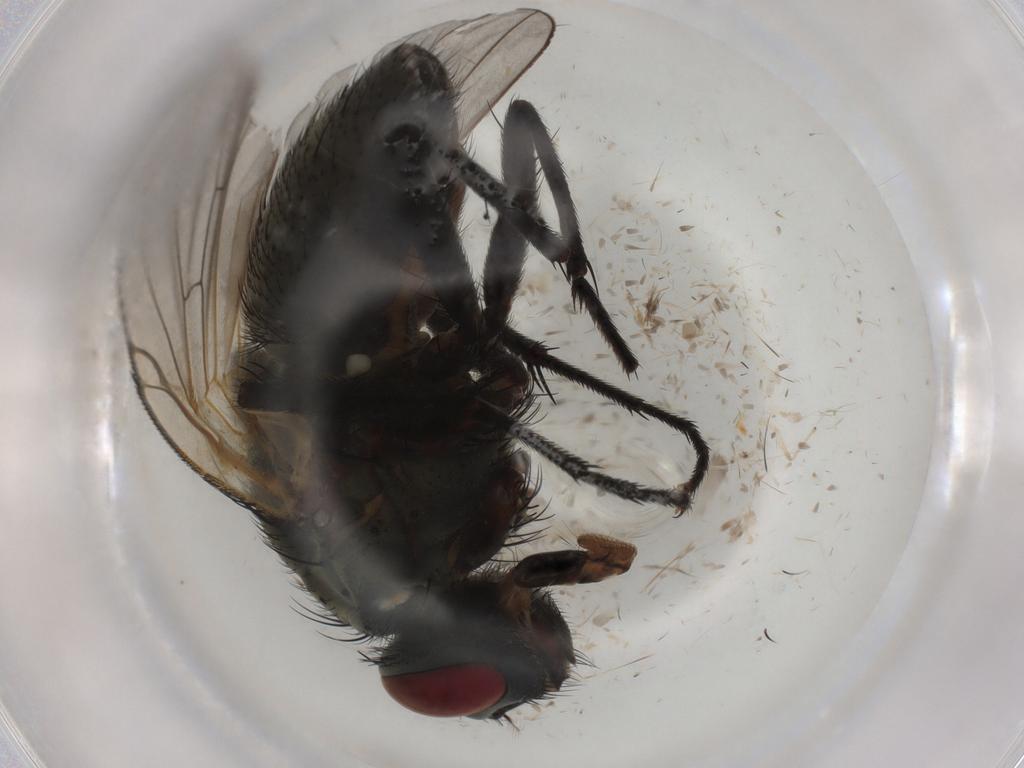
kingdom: Animalia
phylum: Arthropoda
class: Insecta
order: Diptera
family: Muscidae
